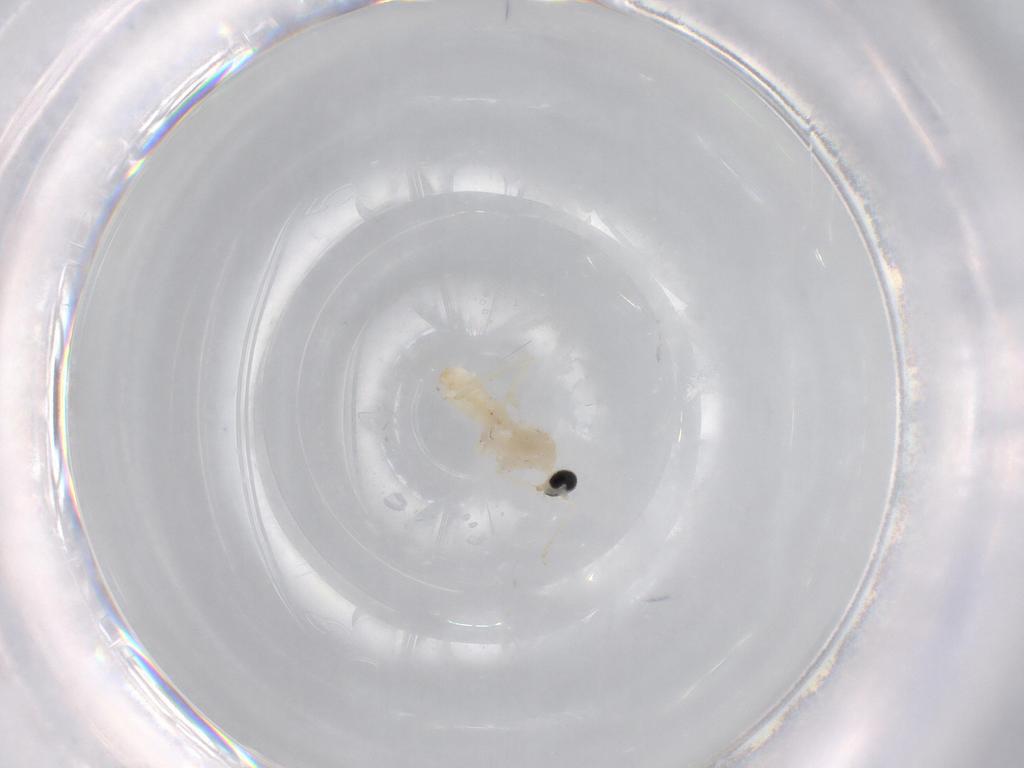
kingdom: Animalia
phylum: Arthropoda
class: Insecta
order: Diptera
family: Cecidomyiidae
